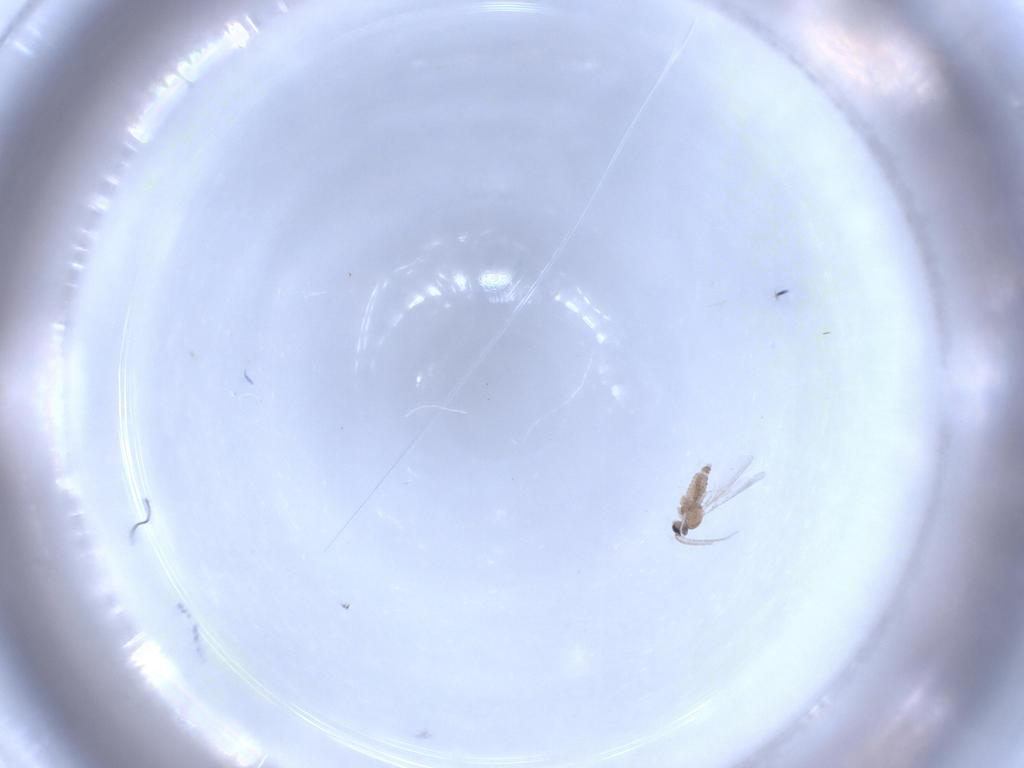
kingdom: Animalia
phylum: Arthropoda
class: Insecta
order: Diptera
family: Cecidomyiidae
